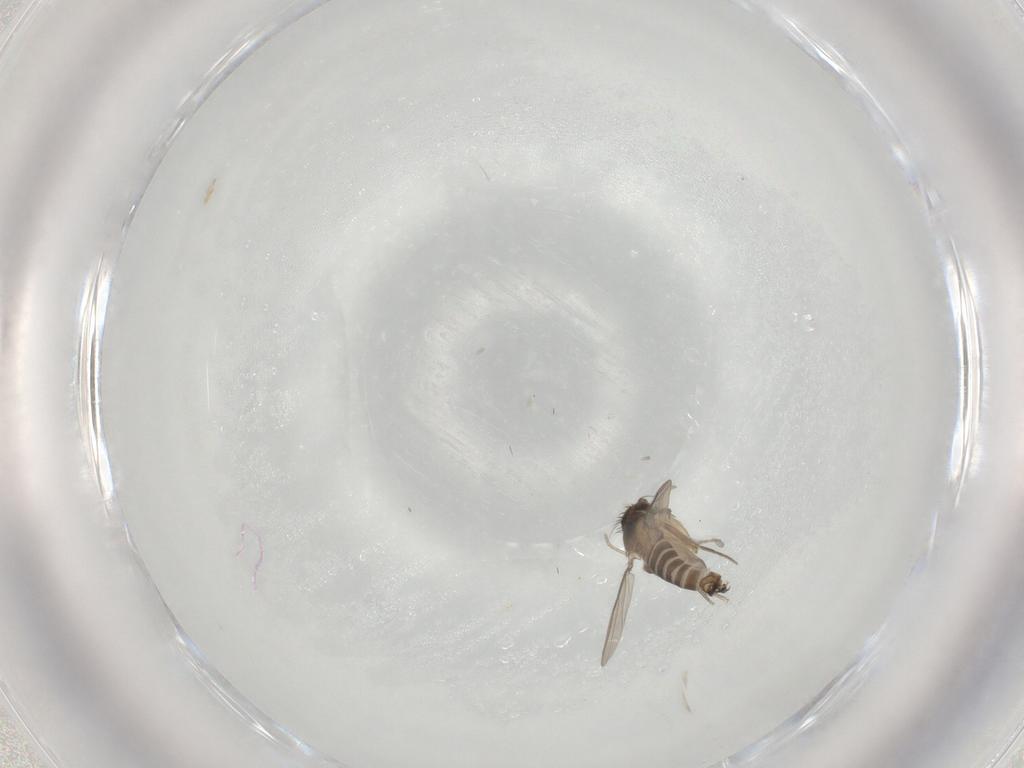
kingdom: Animalia
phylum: Arthropoda
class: Insecta
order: Diptera
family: Phoridae
